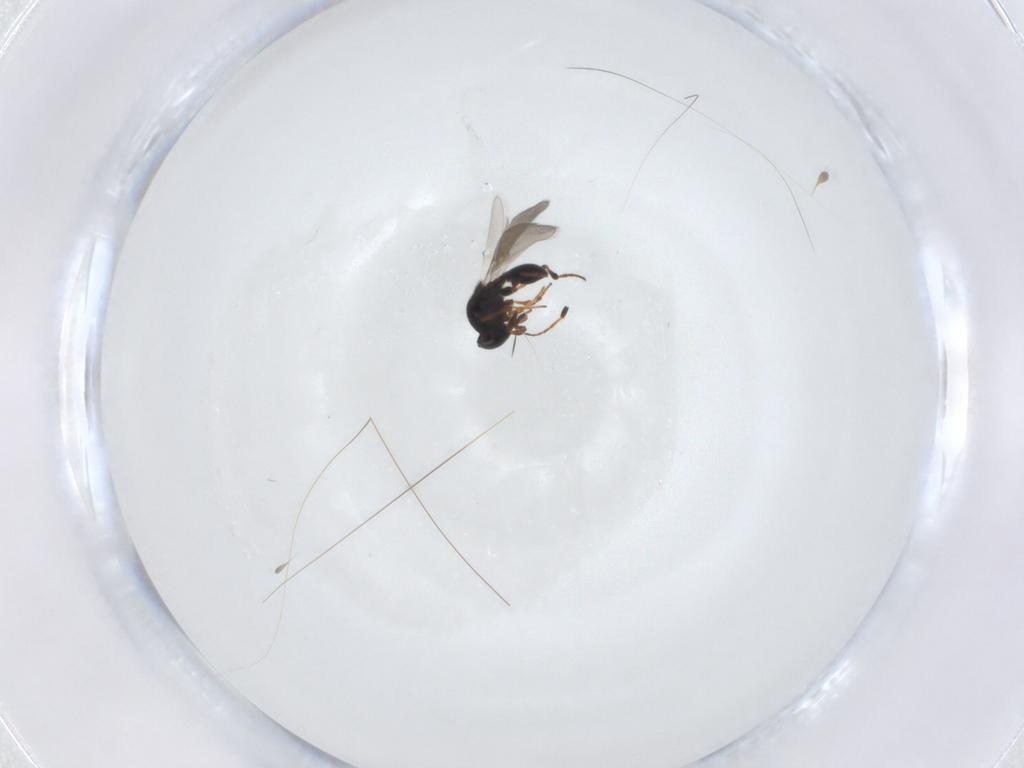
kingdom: Animalia
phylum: Arthropoda
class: Insecta
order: Hymenoptera
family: Platygastridae
